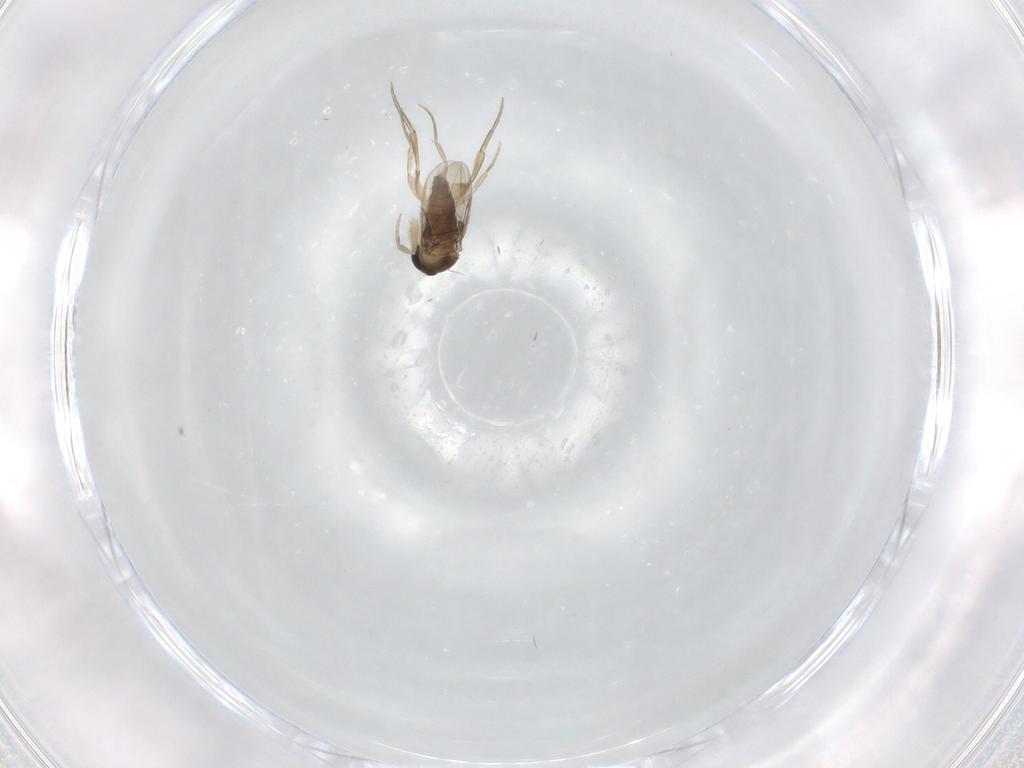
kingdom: Animalia
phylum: Arthropoda
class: Insecta
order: Diptera
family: Phoridae
